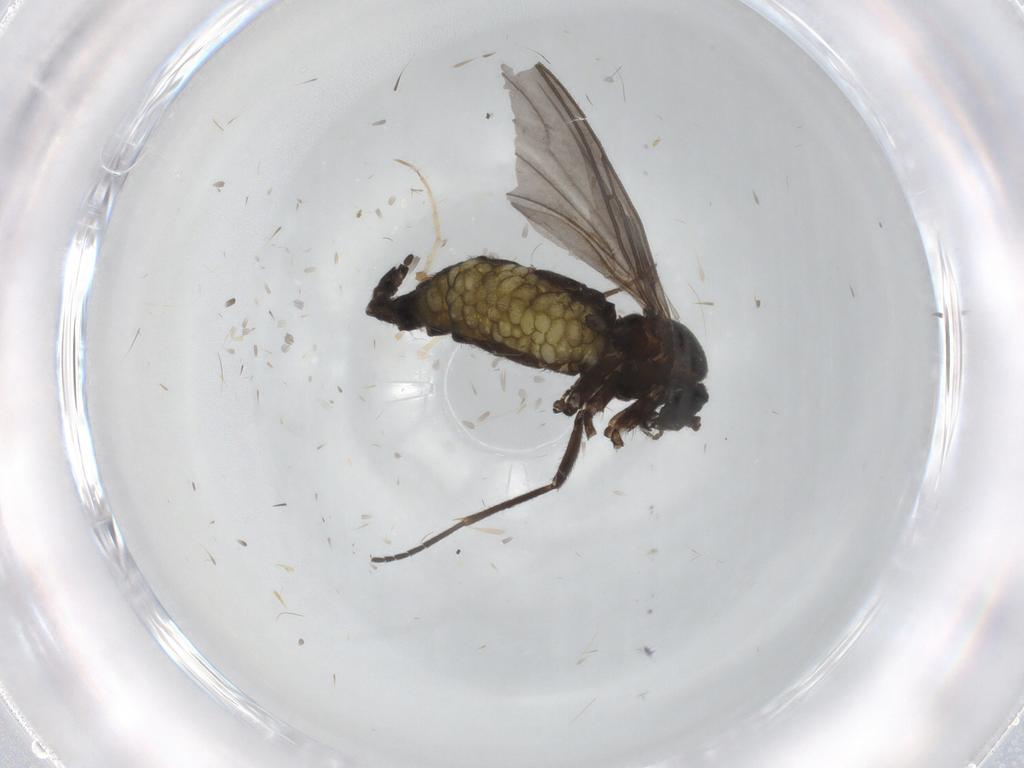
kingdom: Animalia
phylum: Arthropoda
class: Insecta
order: Diptera
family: Sciaridae
